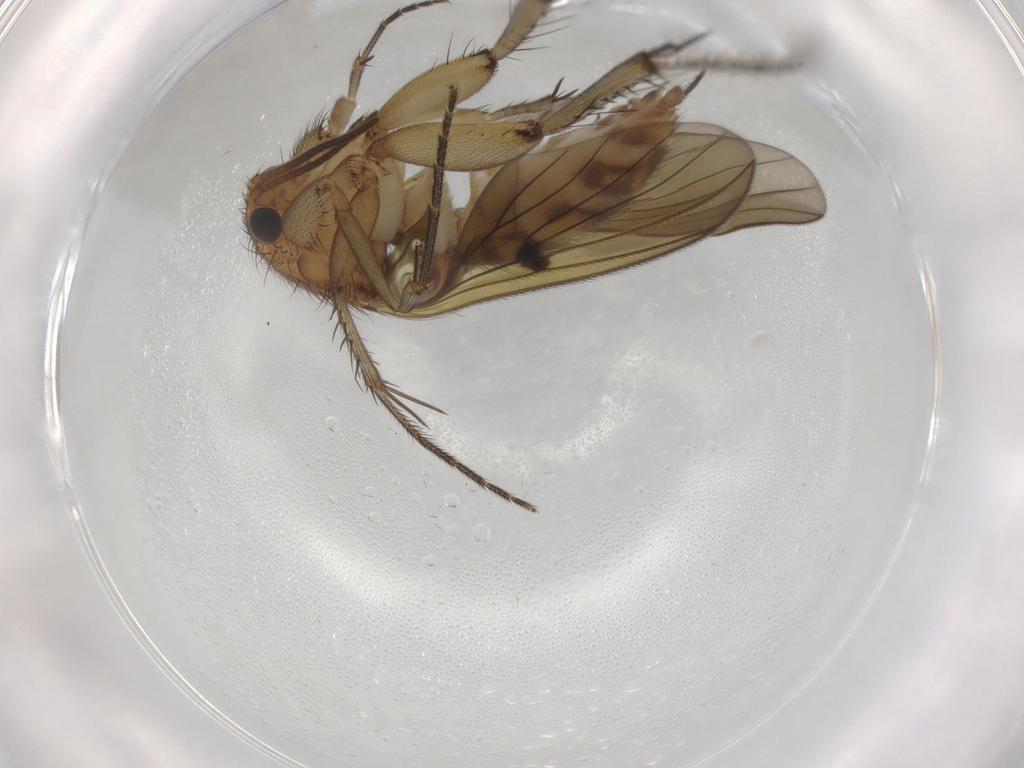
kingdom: Animalia
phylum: Arthropoda
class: Insecta
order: Diptera
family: Mycetophilidae
